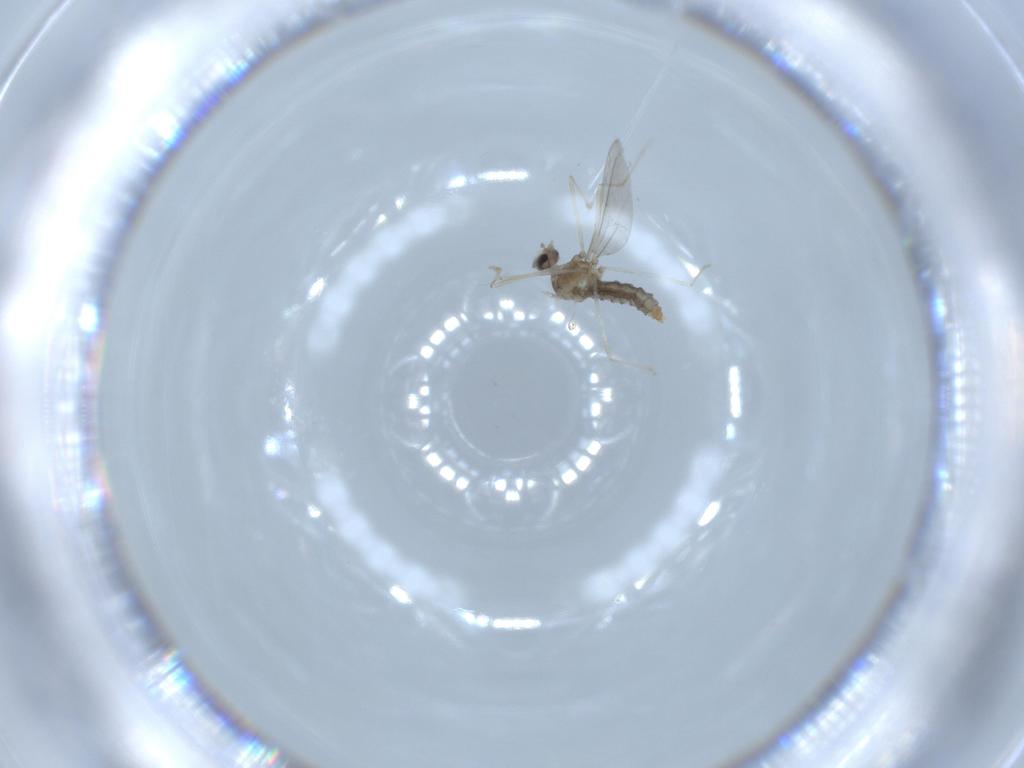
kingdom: Animalia
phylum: Arthropoda
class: Insecta
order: Diptera
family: Cecidomyiidae
